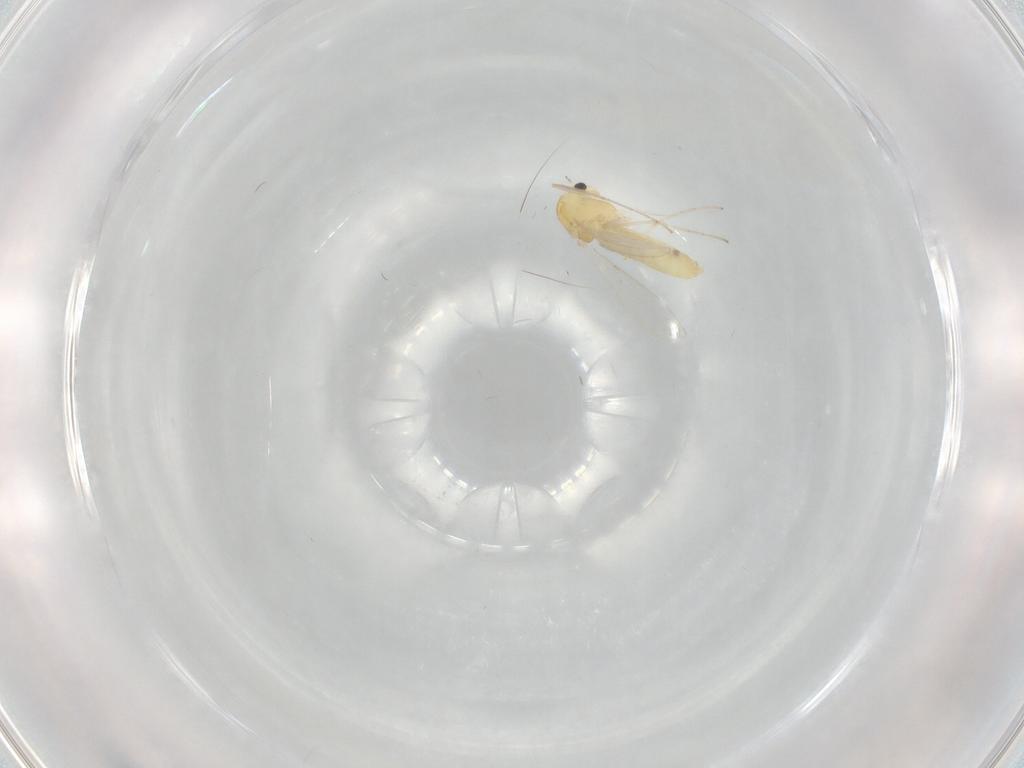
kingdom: Animalia
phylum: Arthropoda
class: Insecta
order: Diptera
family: Chironomidae
